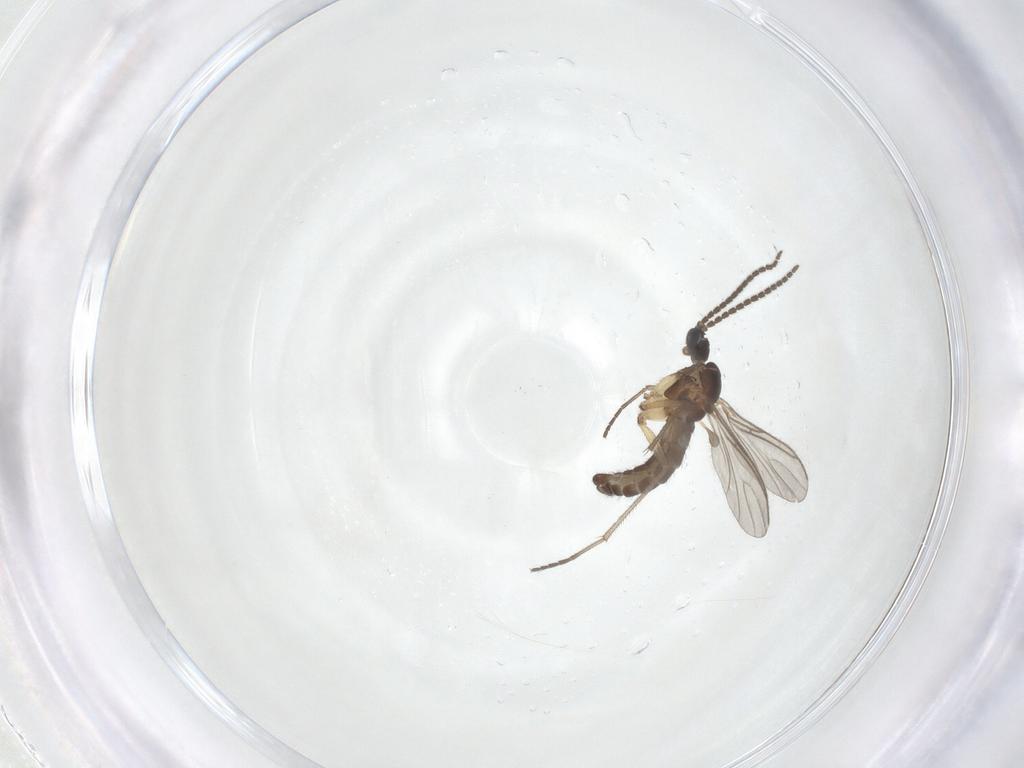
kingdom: Animalia
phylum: Arthropoda
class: Insecta
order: Diptera
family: Sciaridae
